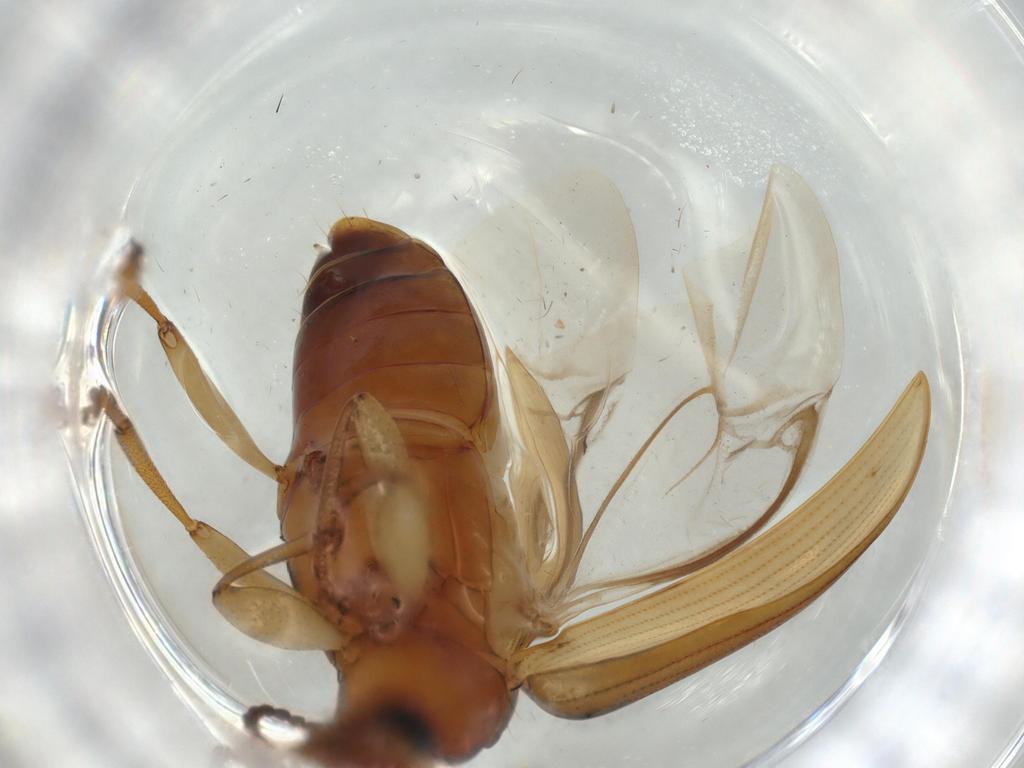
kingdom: Animalia
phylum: Arthropoda
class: Insecta
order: Coleoptera
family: Tenebrionidae
